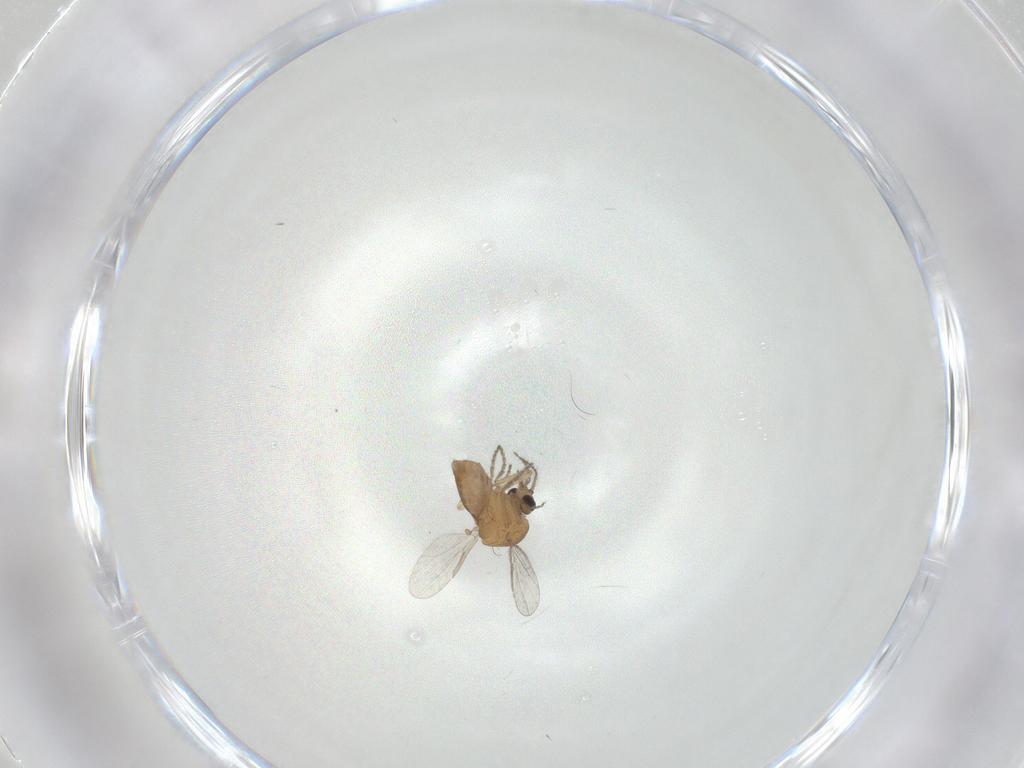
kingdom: Animalia
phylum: Arthropoda
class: Insecta
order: Diptera
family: Ceratopogonidae
